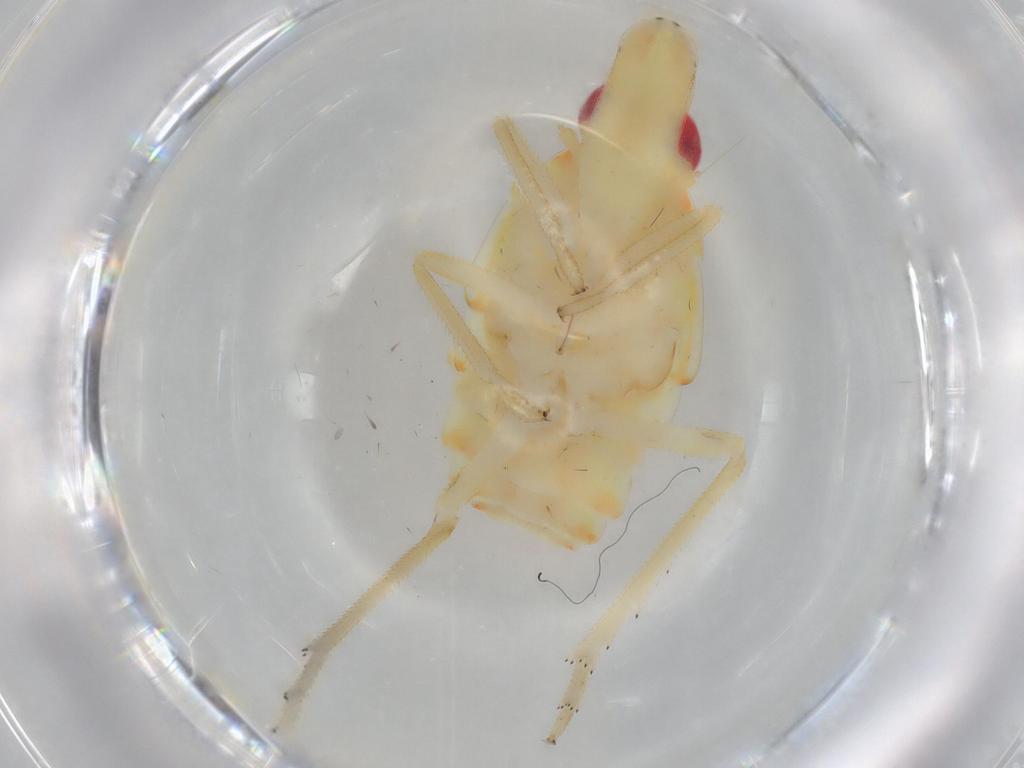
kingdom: Animalia
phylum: Arthropoda
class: Insecta
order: Hemiptera
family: Tropiduchidae
